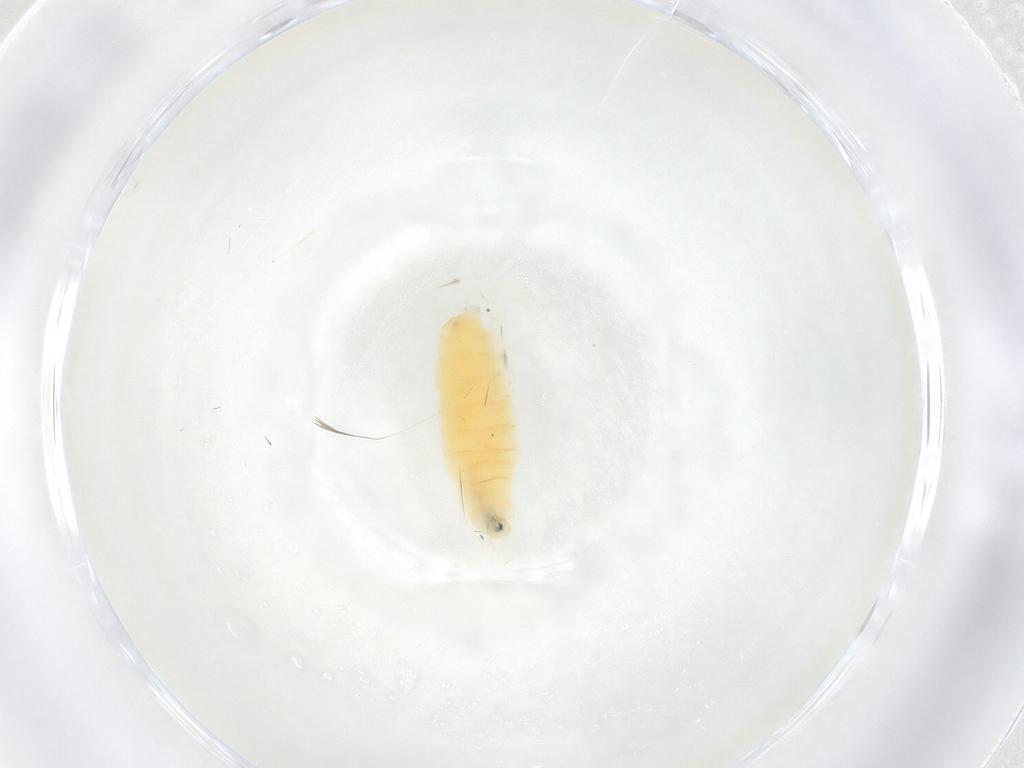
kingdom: Animalia
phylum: Arthropoda
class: Insecta
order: Diptera
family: Sarcophagidae
